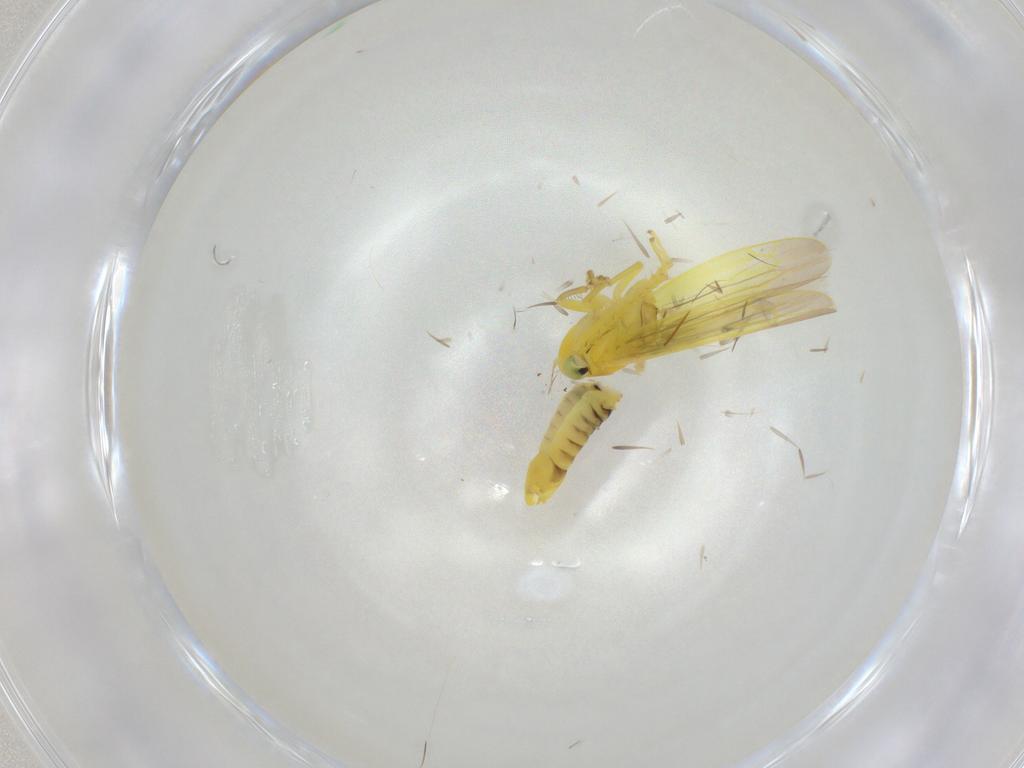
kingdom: Animalia
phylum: Arthropoda
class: Insecta
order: Hemiptera
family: Cicadellidae
